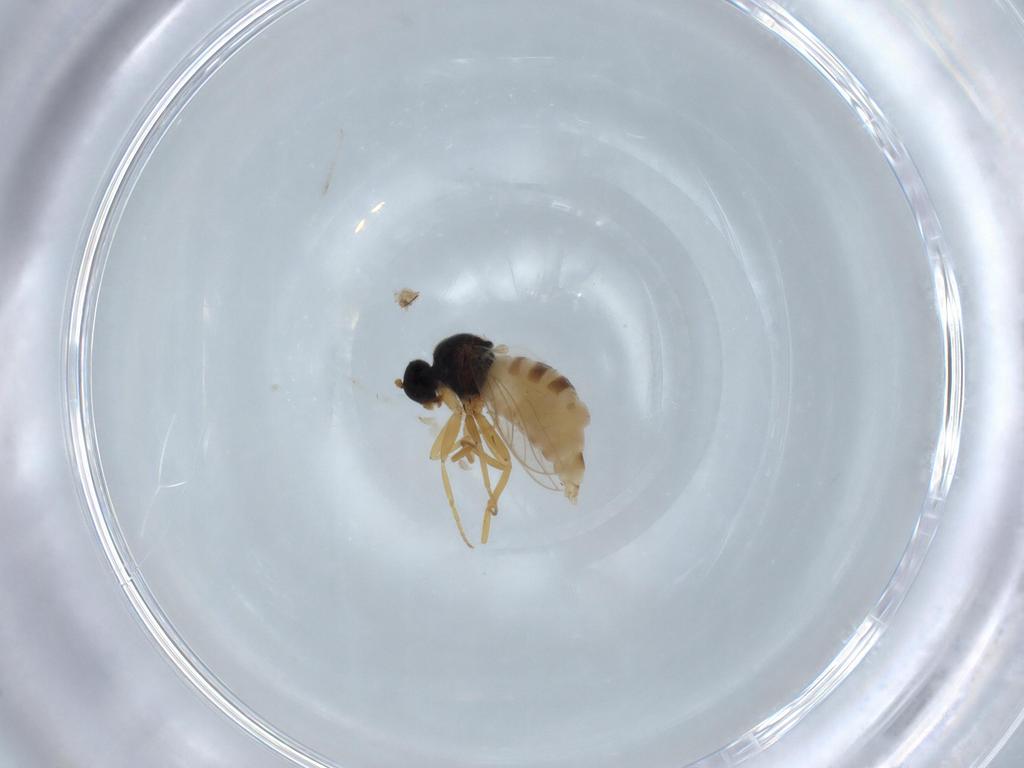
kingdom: Animalia
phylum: Arthropoda
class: Insecta
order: Diptera
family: Hybotidae
